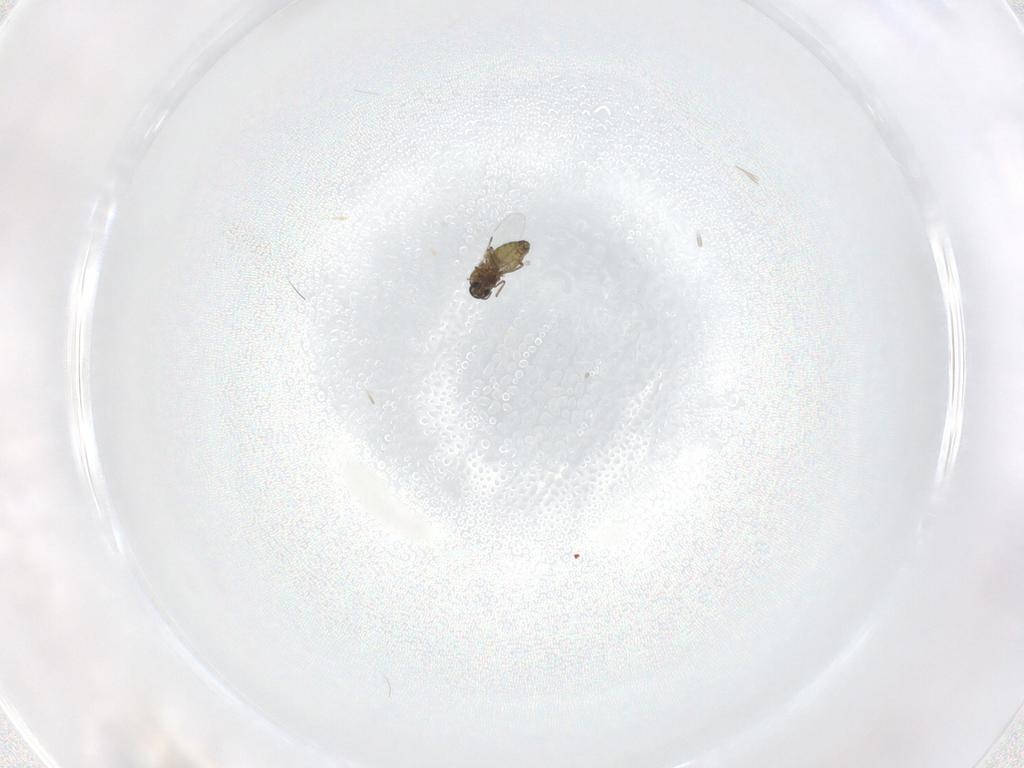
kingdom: Animalia
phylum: Arthropoda
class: Insecta
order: Diptera
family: Ceratopogonidae
